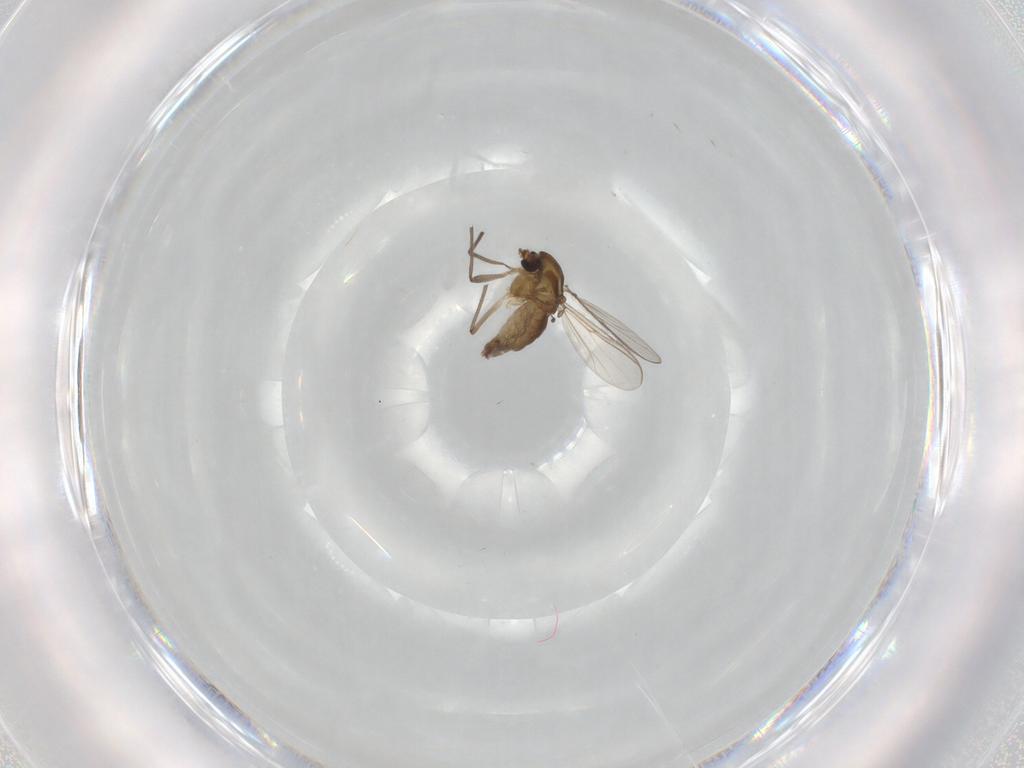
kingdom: Animalia
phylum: Arthropoda
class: Insecta
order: Diptera
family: Chironomidae
